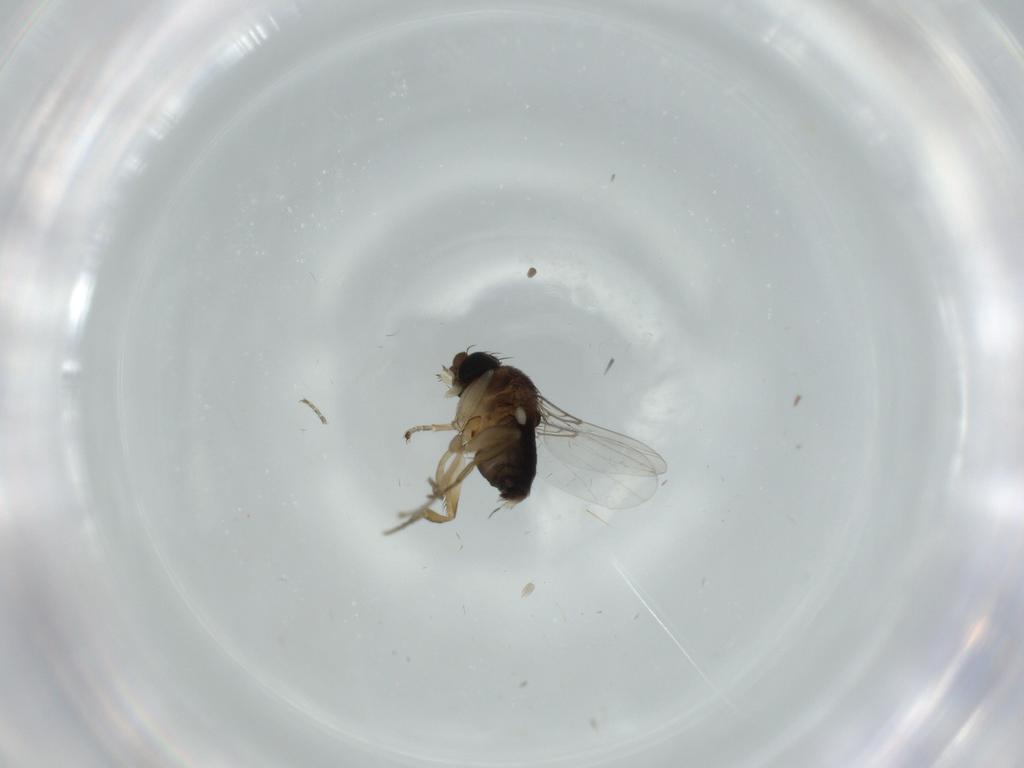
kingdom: Animalia
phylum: Arthropoda
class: Insecta
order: Diptera
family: Phoridae
